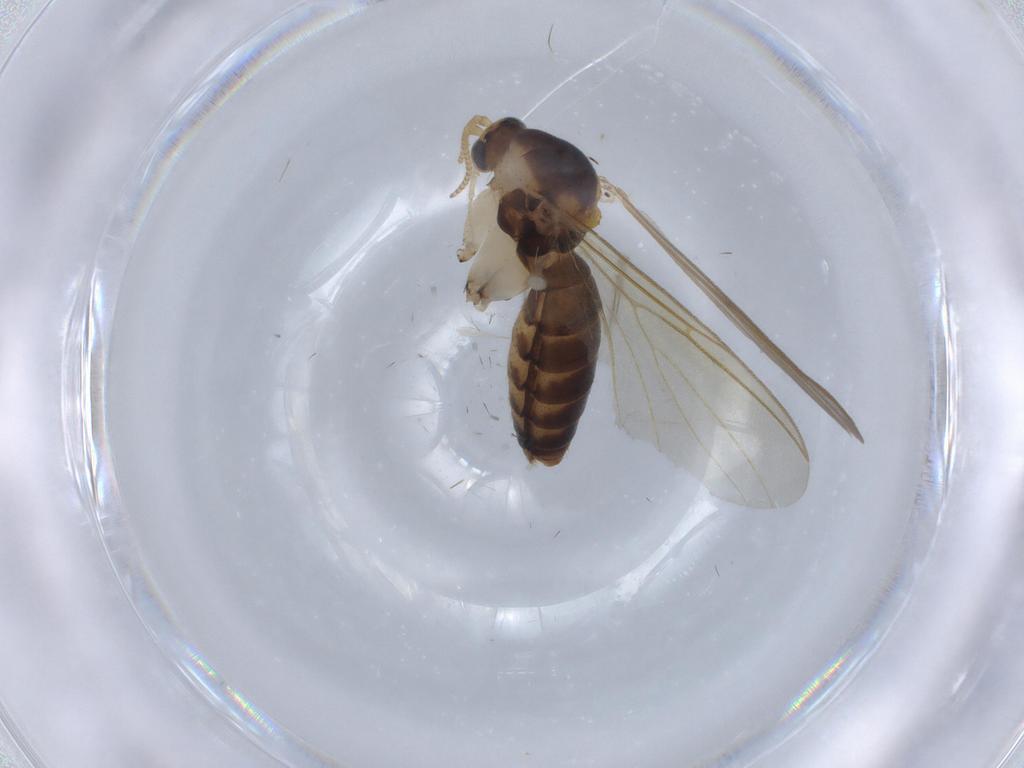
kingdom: Animalia
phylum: Arthropoda
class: Insecta
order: Diptera
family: Mycetophilidae
